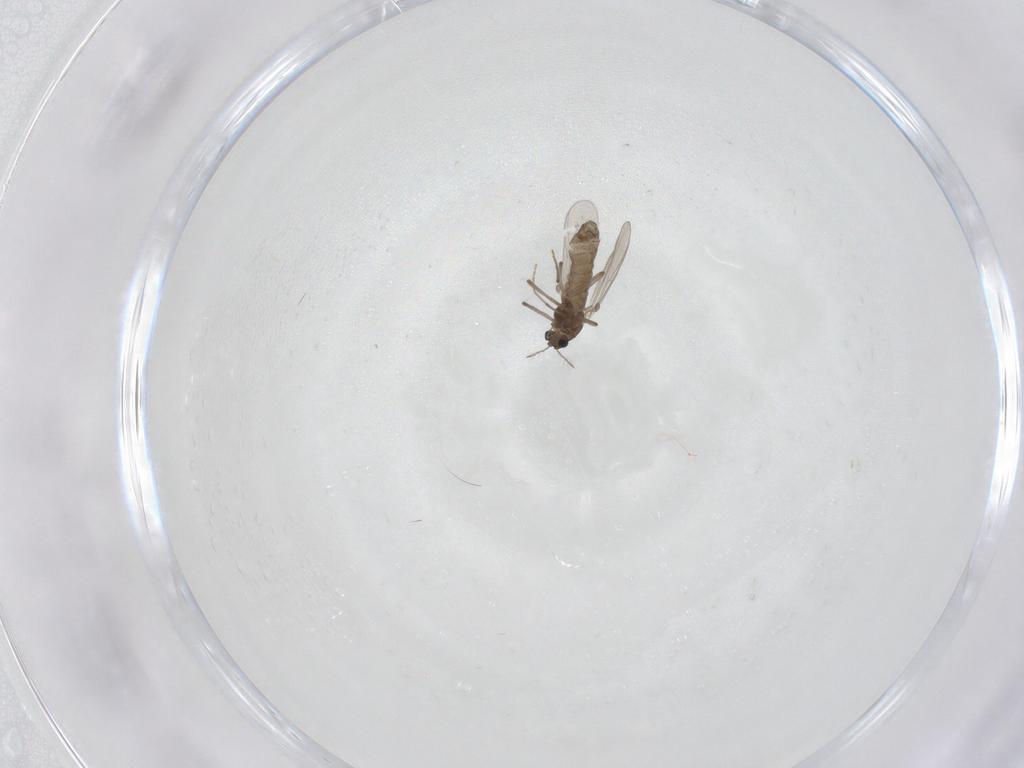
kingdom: Animalia
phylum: Arthropoda
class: Insecta
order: Diptera
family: Chironomidae
